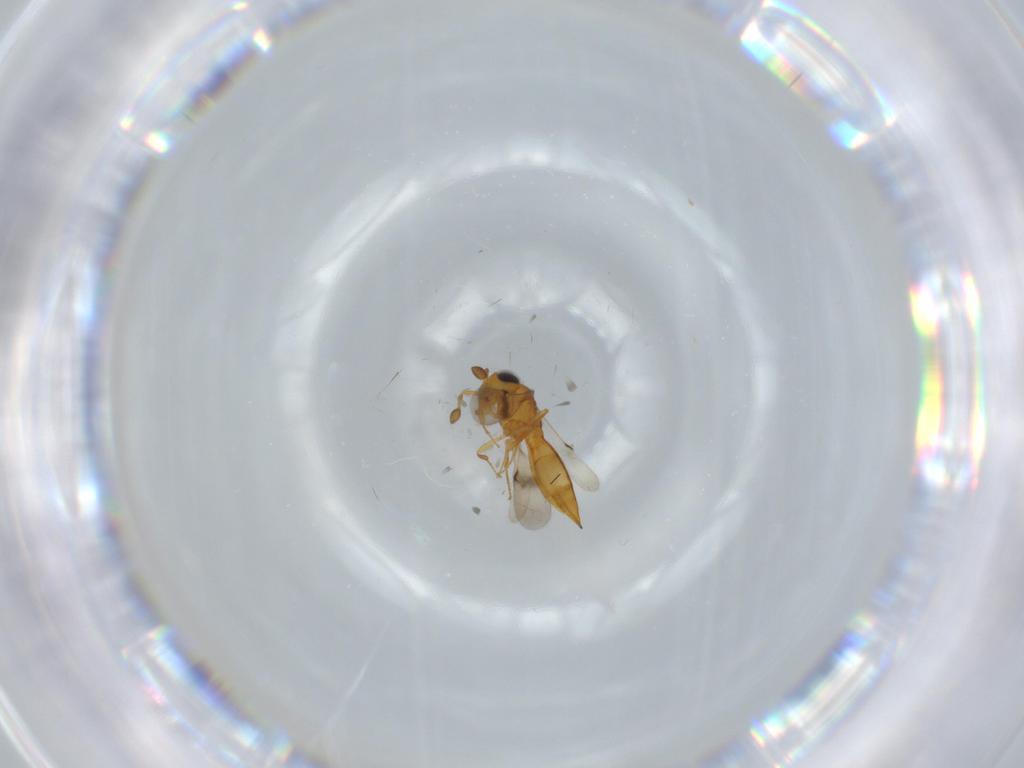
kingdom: Animalia
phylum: Arthropoda
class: Insecta
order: Hymenoptera
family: Scelionidae
